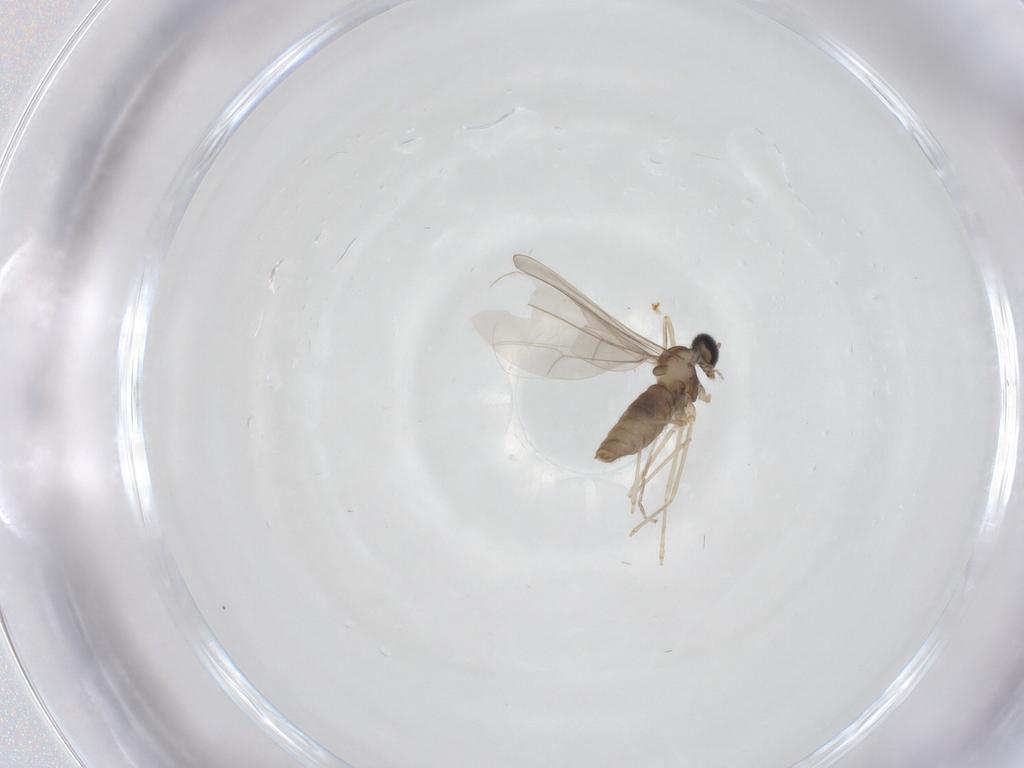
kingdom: Animalia
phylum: Arthropoda
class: Insecta
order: Diptera
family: Cecidomyiidae
